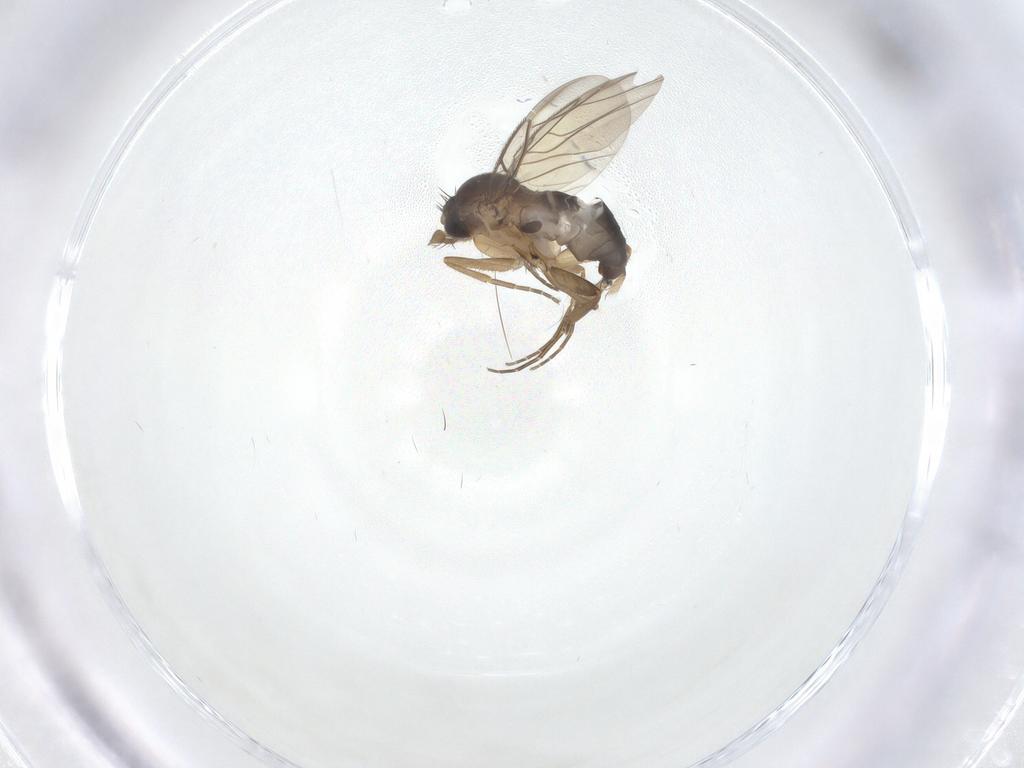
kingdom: Animalia
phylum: Arthropoda
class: Insecta
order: Diptera
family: Phoridae
